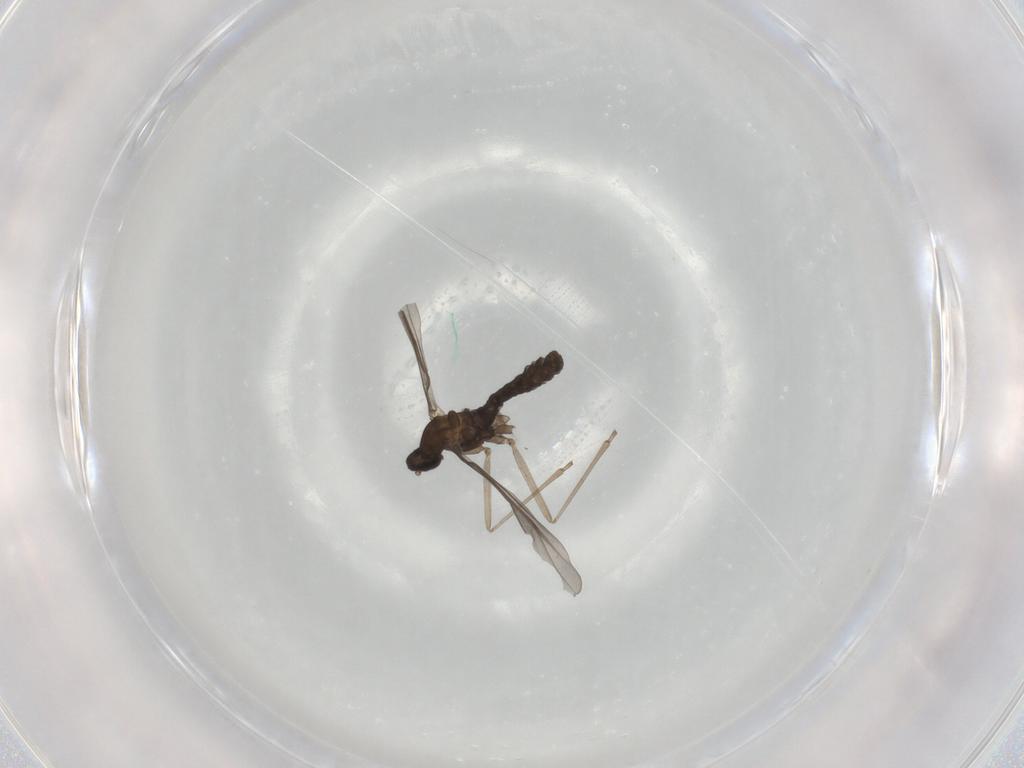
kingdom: Animalia
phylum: Arthropoda
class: Insecta
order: Diptera
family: Cecidomyiidae
